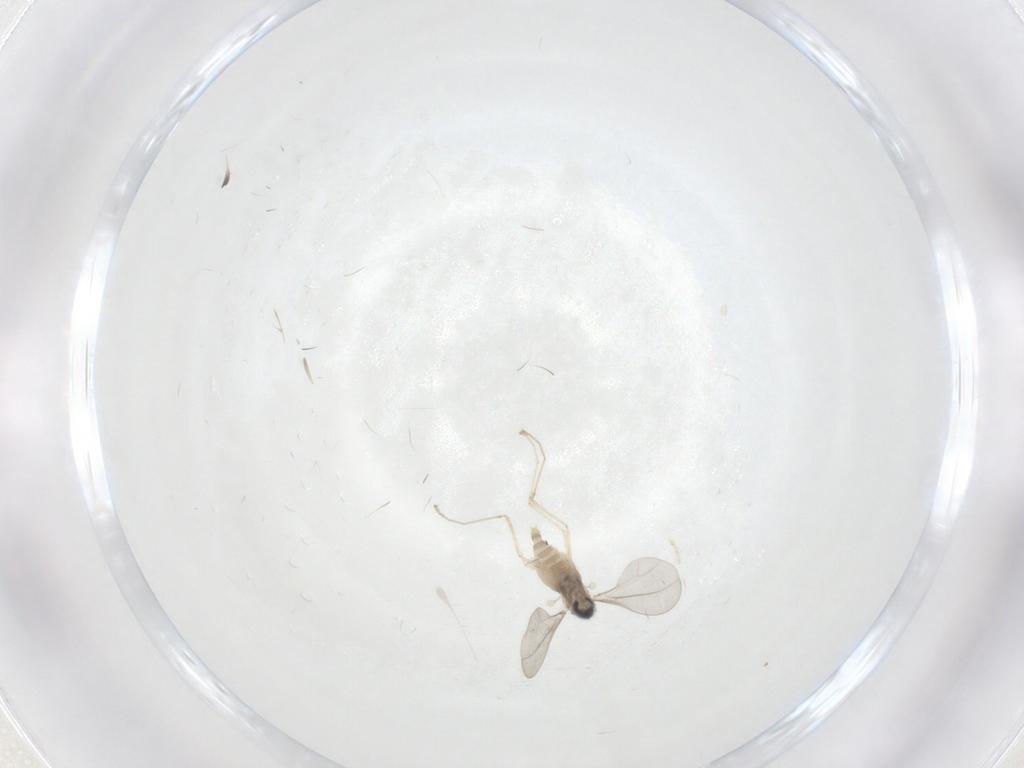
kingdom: Animalia
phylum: Arthropoda
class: Insecta
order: Diptera
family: Cecidomyiidae
